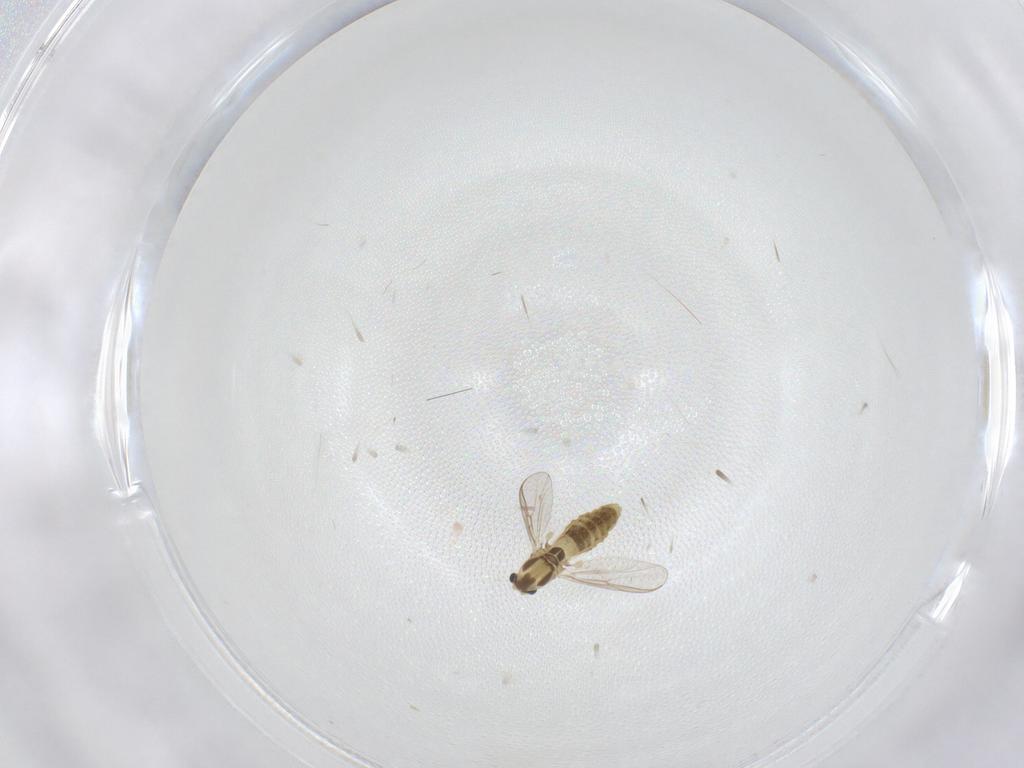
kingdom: Animalia
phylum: Arthropoda
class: Insecta
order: Diptera
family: Chironomidae
